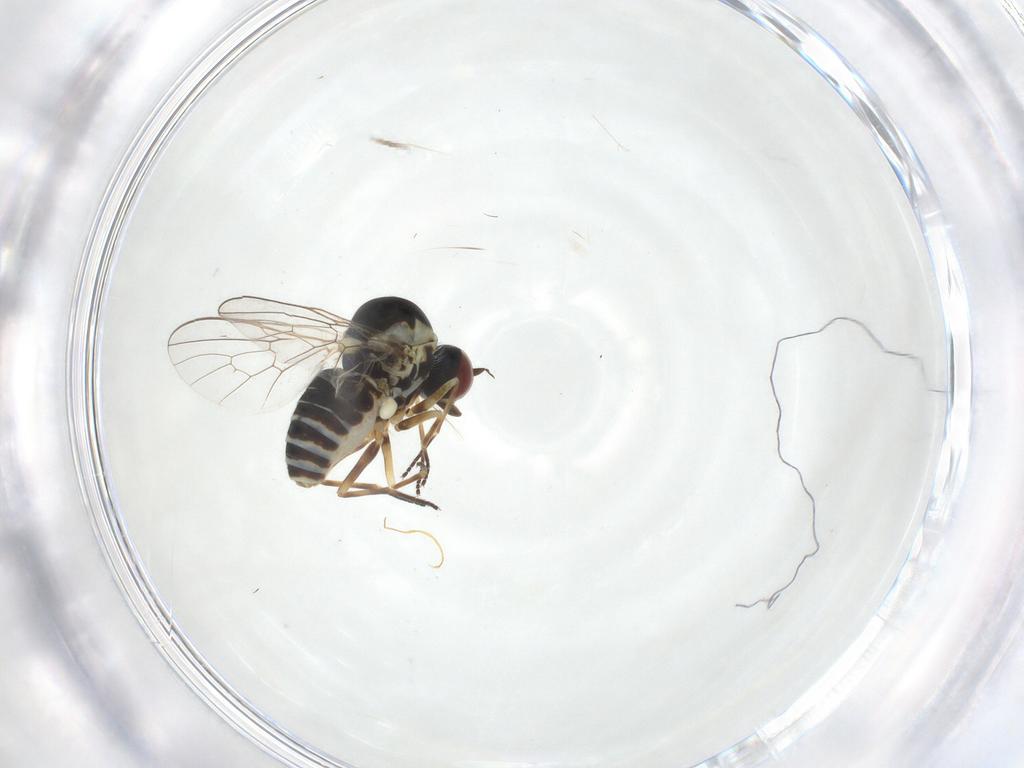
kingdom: Animalia
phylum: Arthropoda
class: Insecta
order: Diptera
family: Bombyliidae
